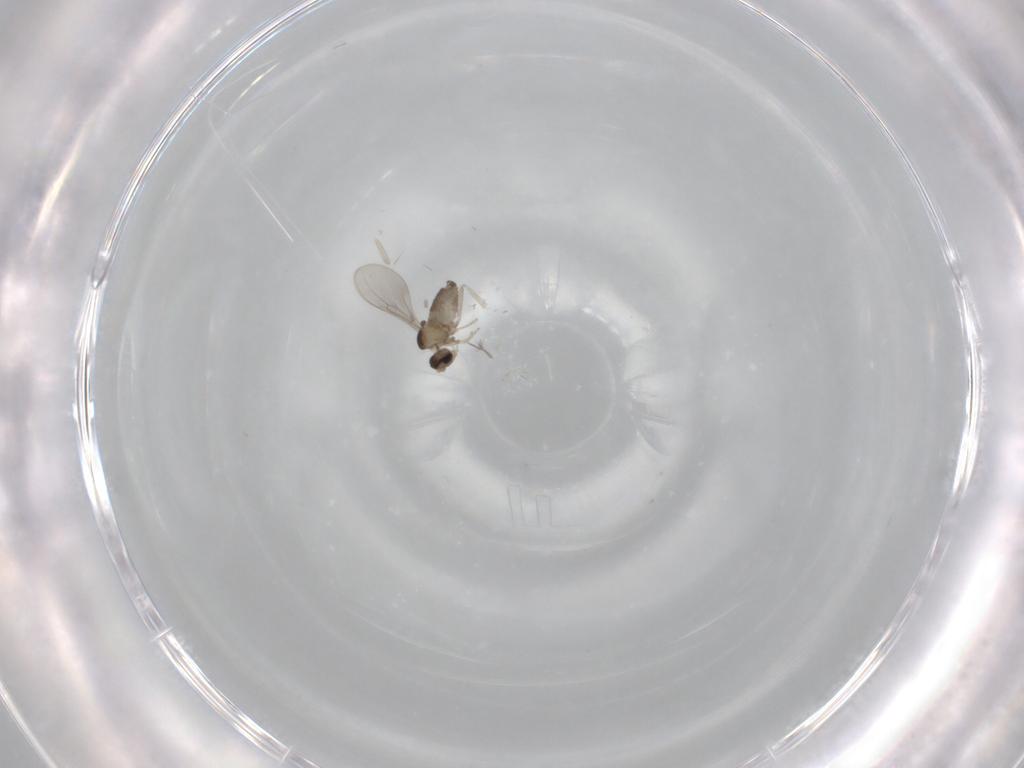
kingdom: Animalia
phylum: Arthropoda
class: Insecta
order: Diptera
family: Cecidomyiidae
